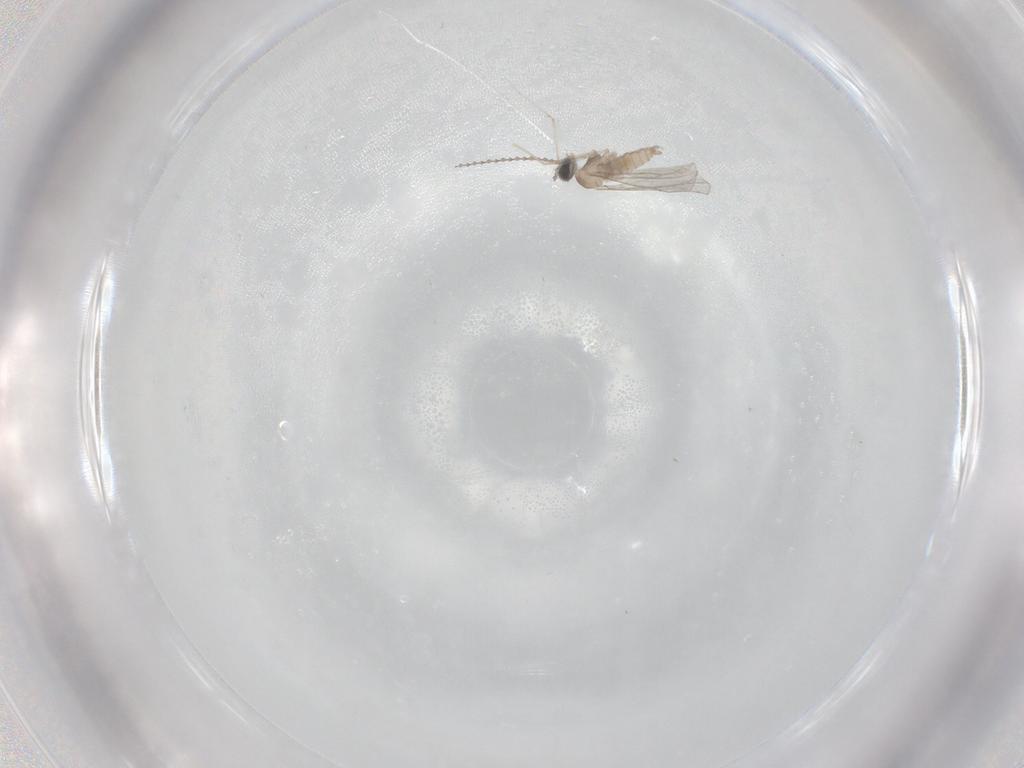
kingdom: Animalia
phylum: Arthropoda
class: Insecta
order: Diptera
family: Cecidomyiidae
